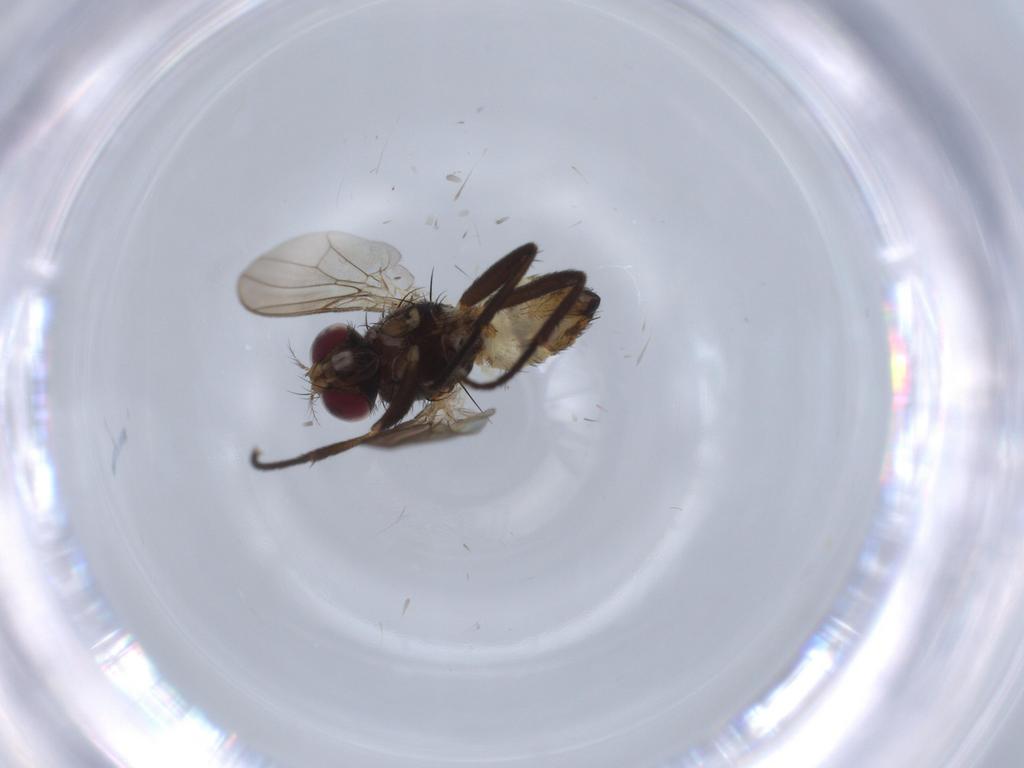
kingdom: Animalia
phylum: Arthropoda
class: Insecta
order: Diptera
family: Anthomyiidae
